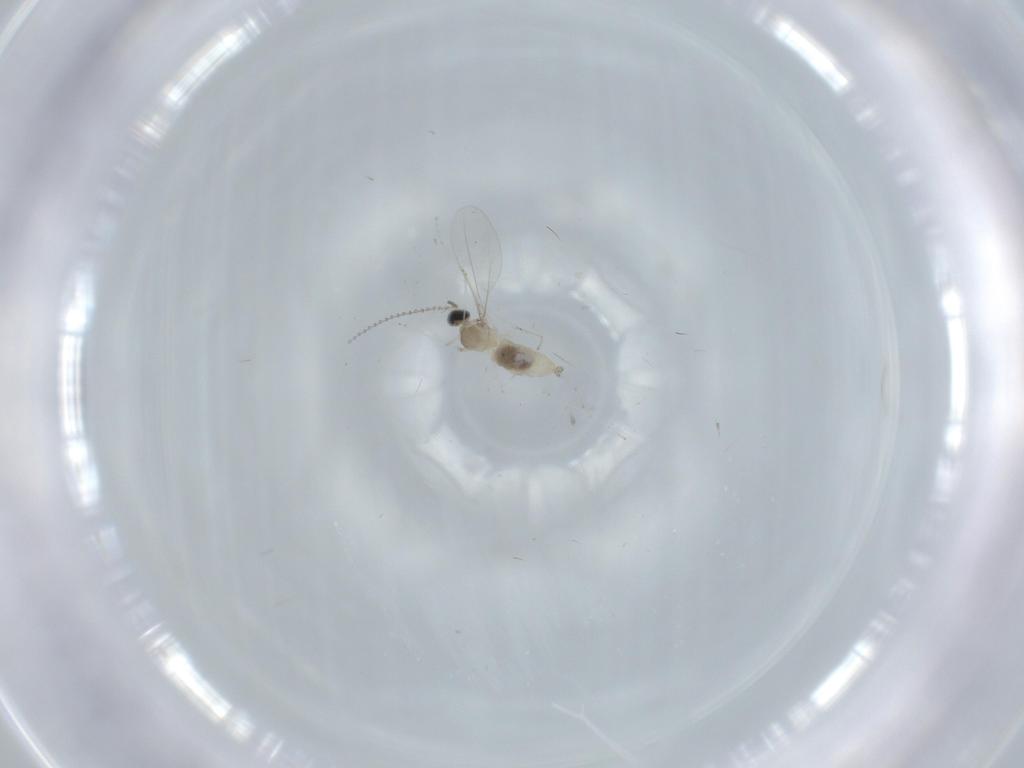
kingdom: Animalia
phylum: Arthropoda
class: Insecta
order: Diptera
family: Cecidomyiidae
